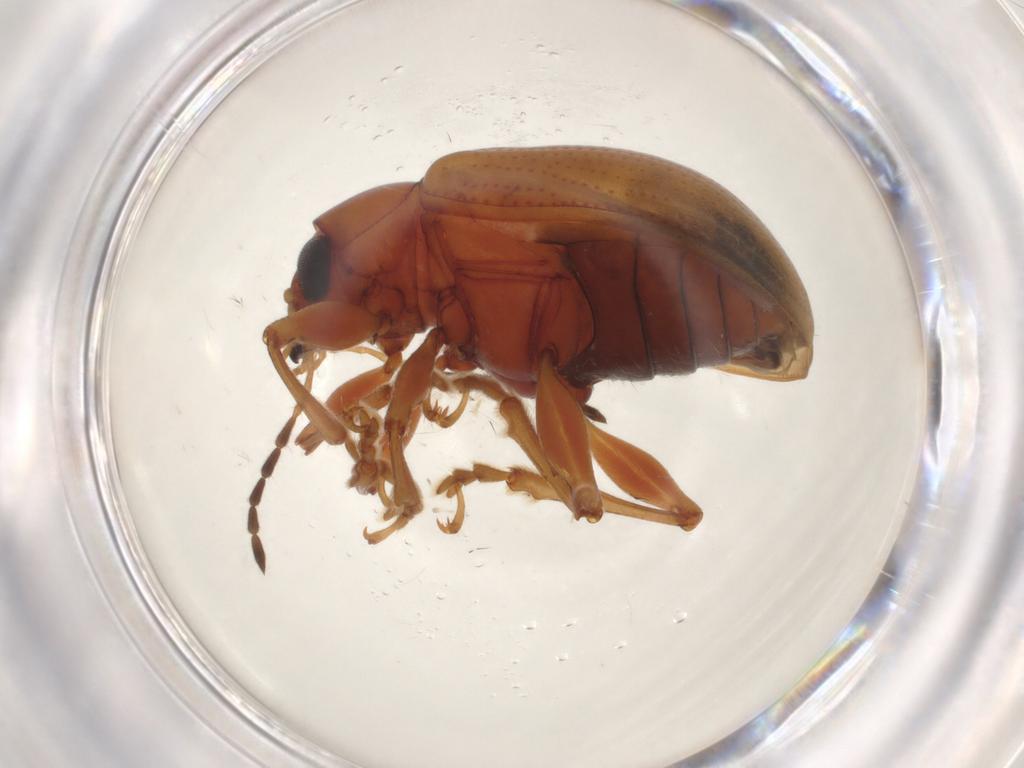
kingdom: Animalia
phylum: Arthropoda
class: Insecta
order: Coleoptera
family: Chrysomelidae
